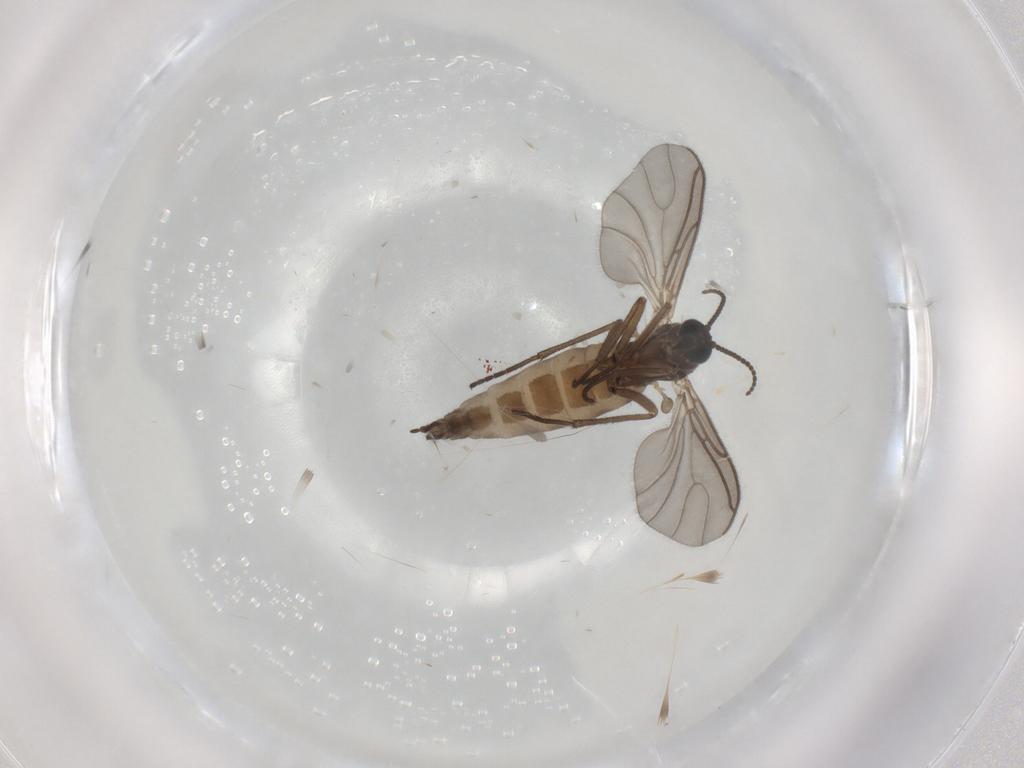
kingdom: Animalia
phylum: Arthropoda
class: Insecta
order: Diptera
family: Sciaridae
